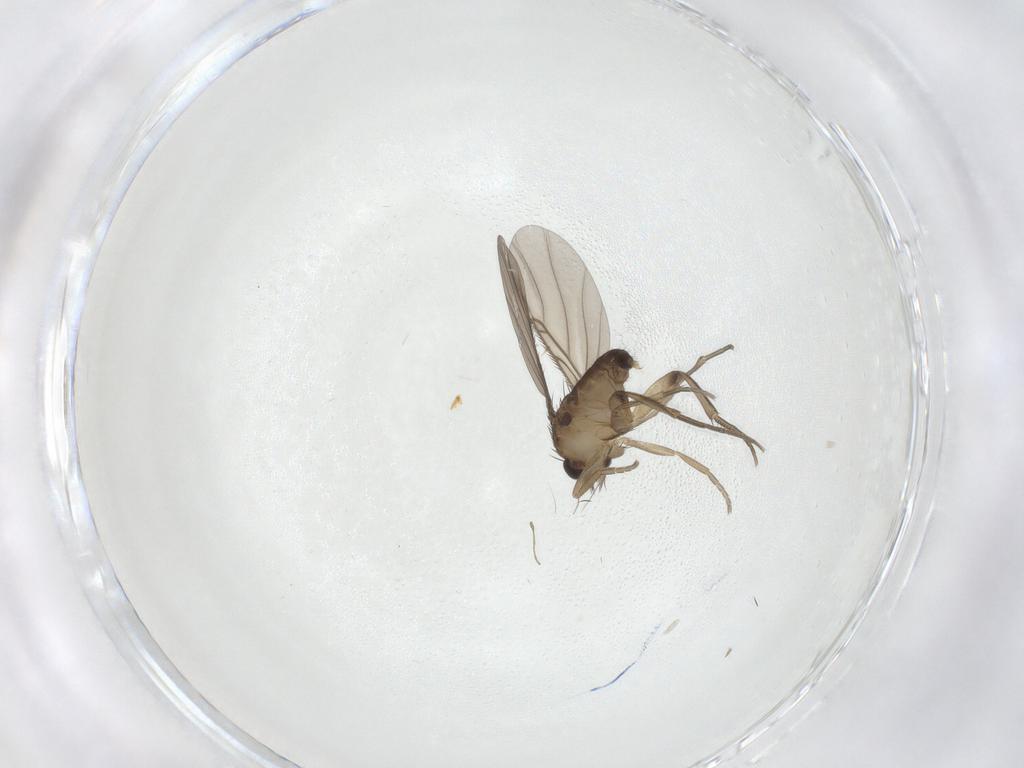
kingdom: Animalia
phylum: Arthropoda
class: Insecta
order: Diptera
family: Phoridae
